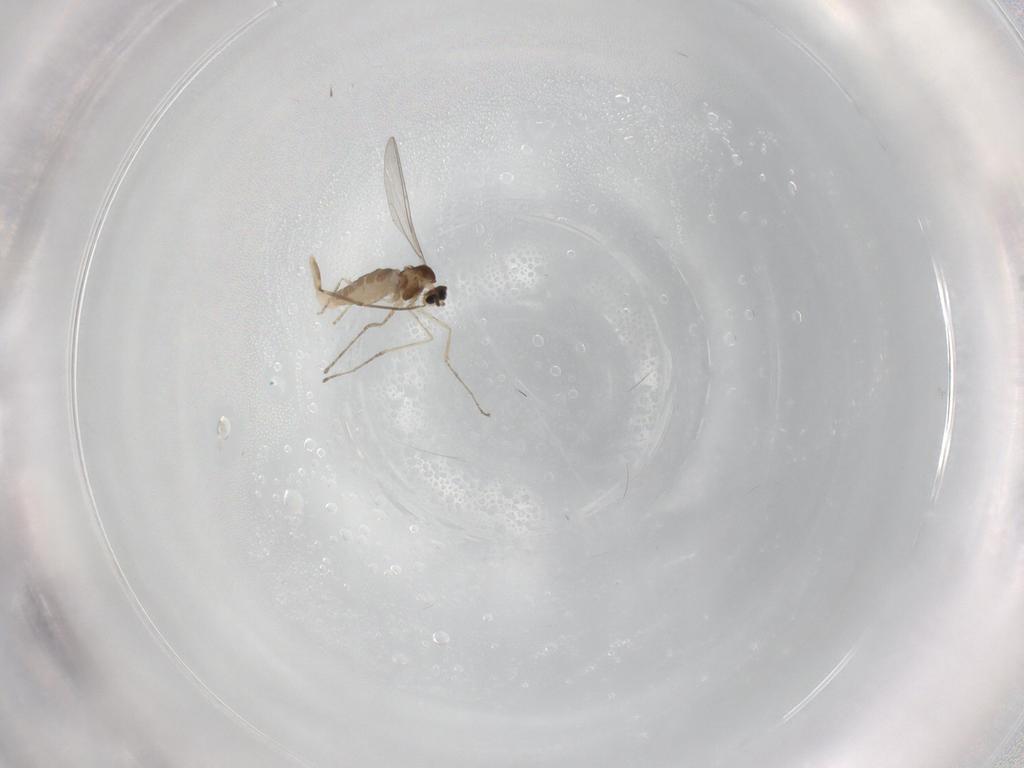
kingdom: Animalia
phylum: Arthropoda
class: Insecta
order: Diptera
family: Cecidomyiidae
